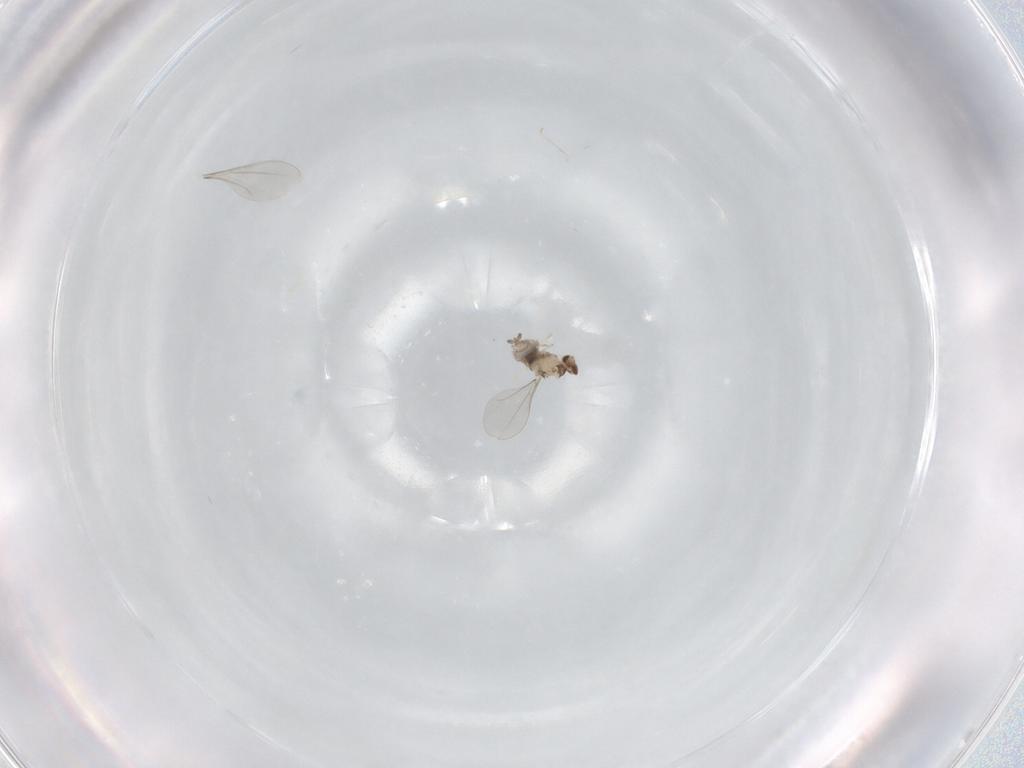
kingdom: Animalia
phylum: Arthropoda
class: Insecta
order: Diptera
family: Cecidomyiidae
